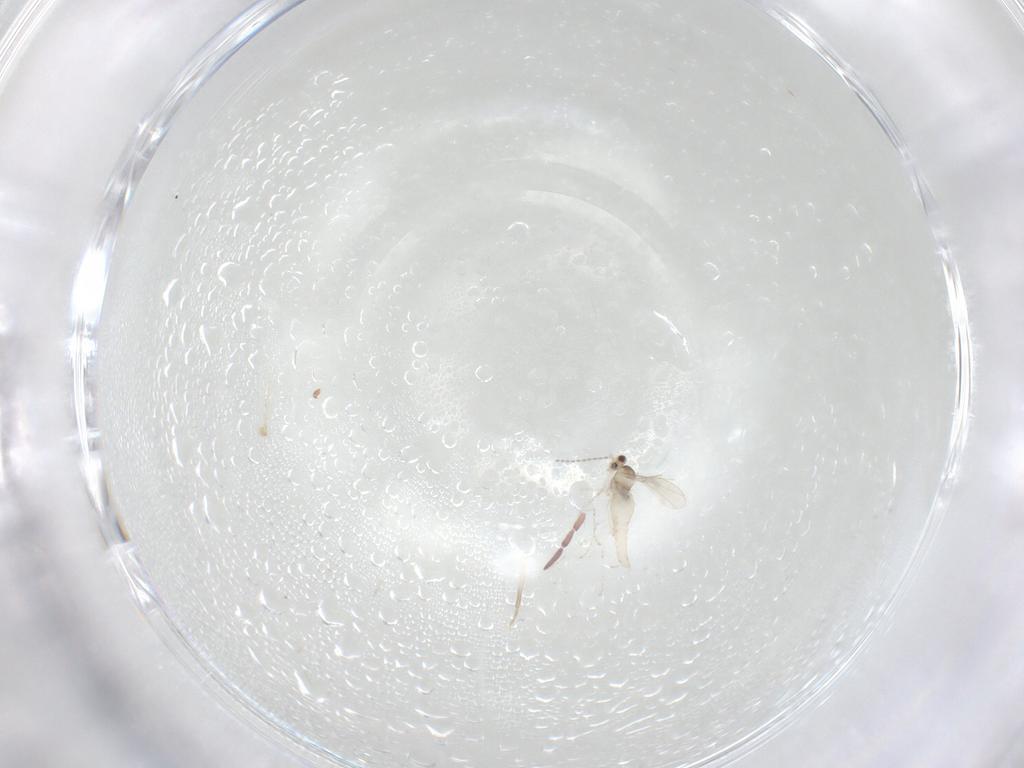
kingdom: Animalia
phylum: Arthropoda
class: Insecta
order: Diptera
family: Cecidomyiidae
